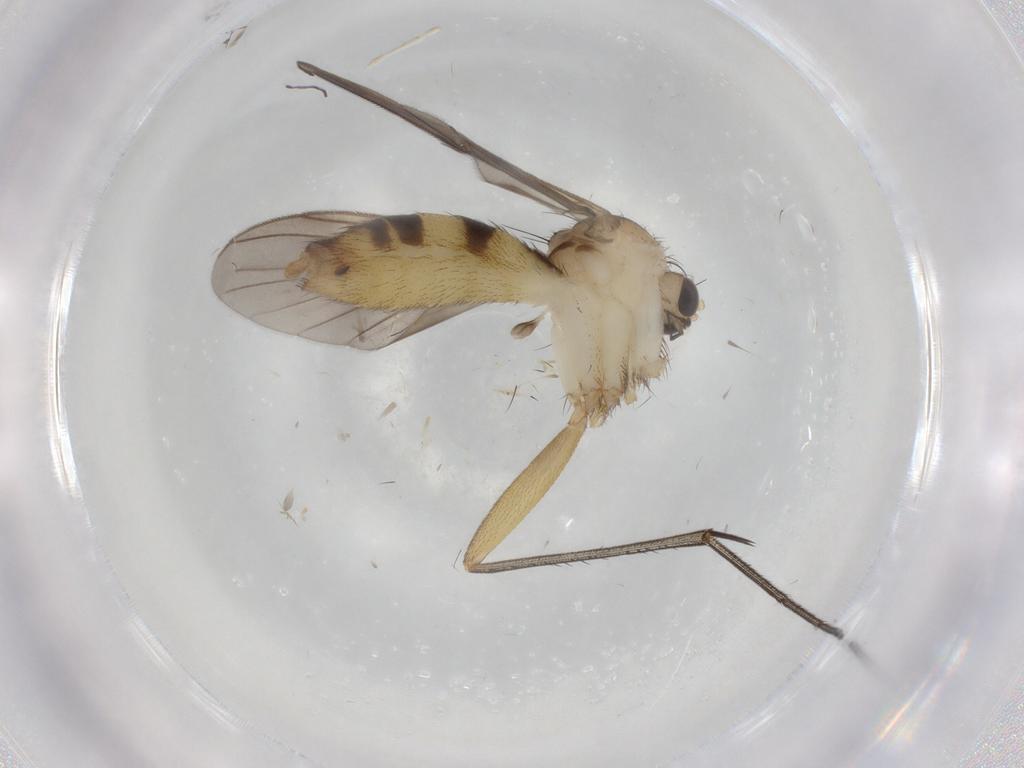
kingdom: Animalia
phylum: Arthropoda
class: Insecta
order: Diptera
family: Mycetophilidae
